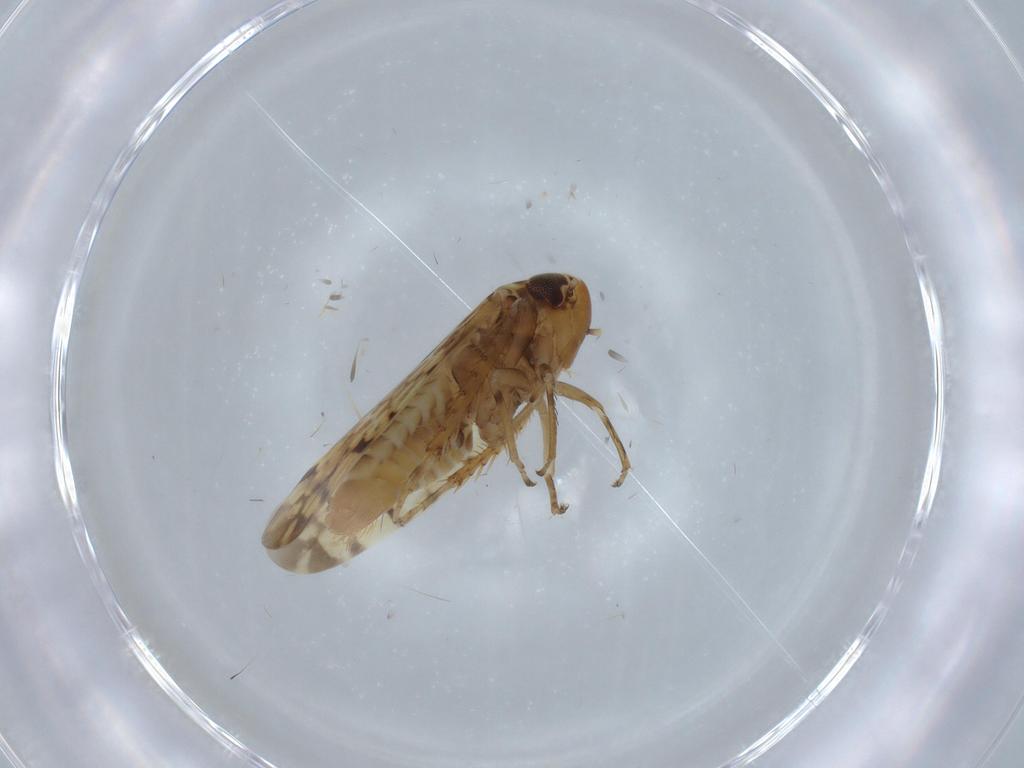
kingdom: Animalia
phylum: Arthropoda
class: Insecta
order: Hemiptera
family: Cicadellidae
